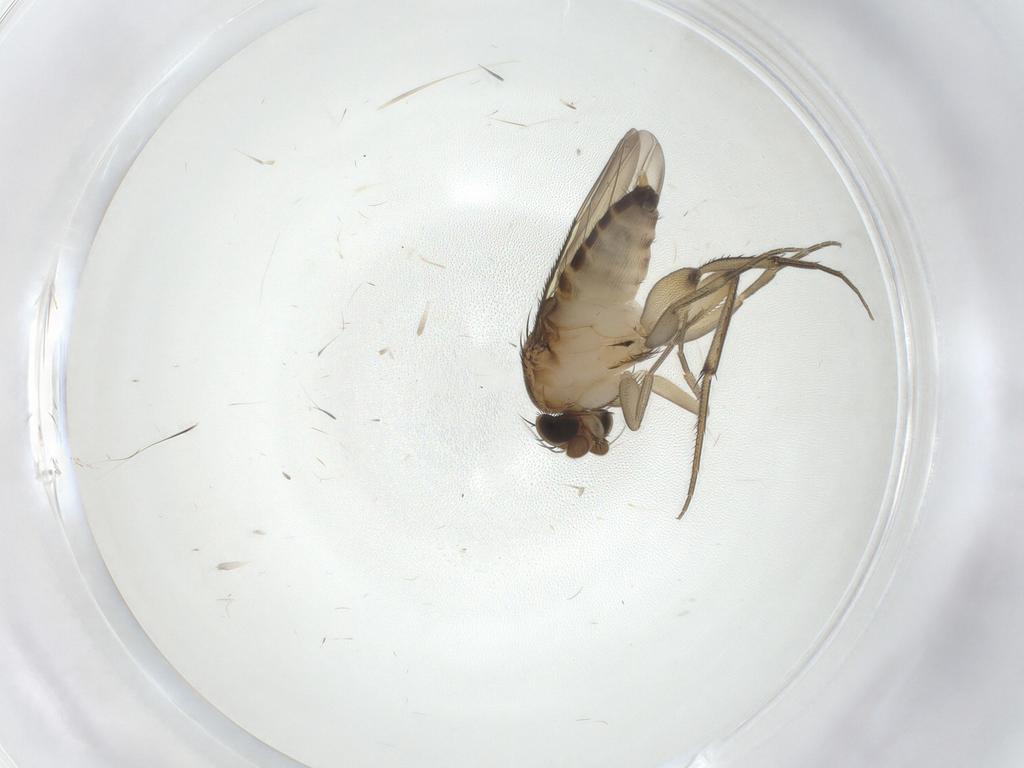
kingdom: Animalia
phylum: Arthropoda
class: Insecta
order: Diptera
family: Phoridae
